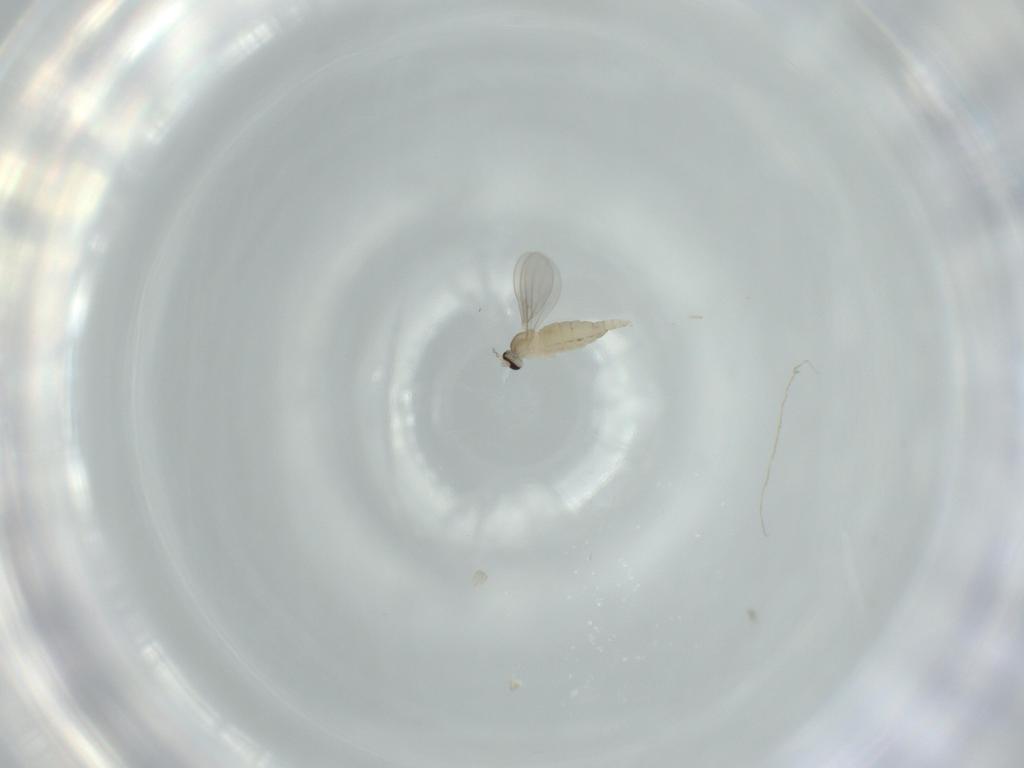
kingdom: Animalia
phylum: Arthropoda
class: Insecta
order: Diptera
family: Cecidomyiidae
